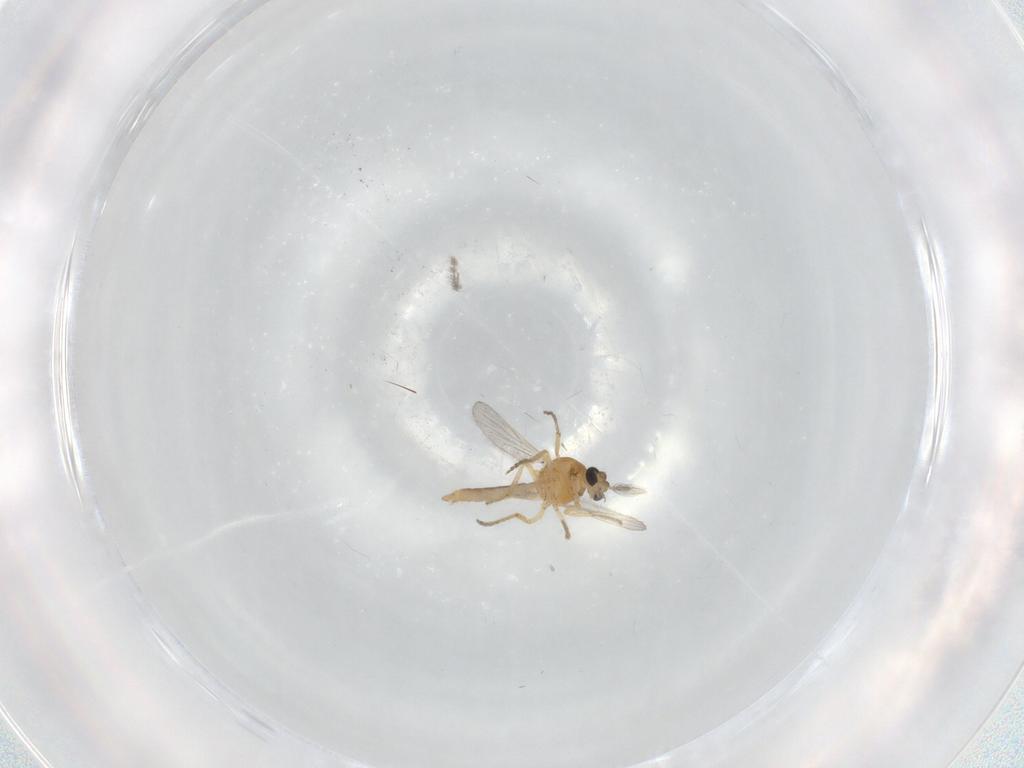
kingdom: Animalia
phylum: Arthropoda
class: Insecta
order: Diptera
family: Ceratopogonidae
